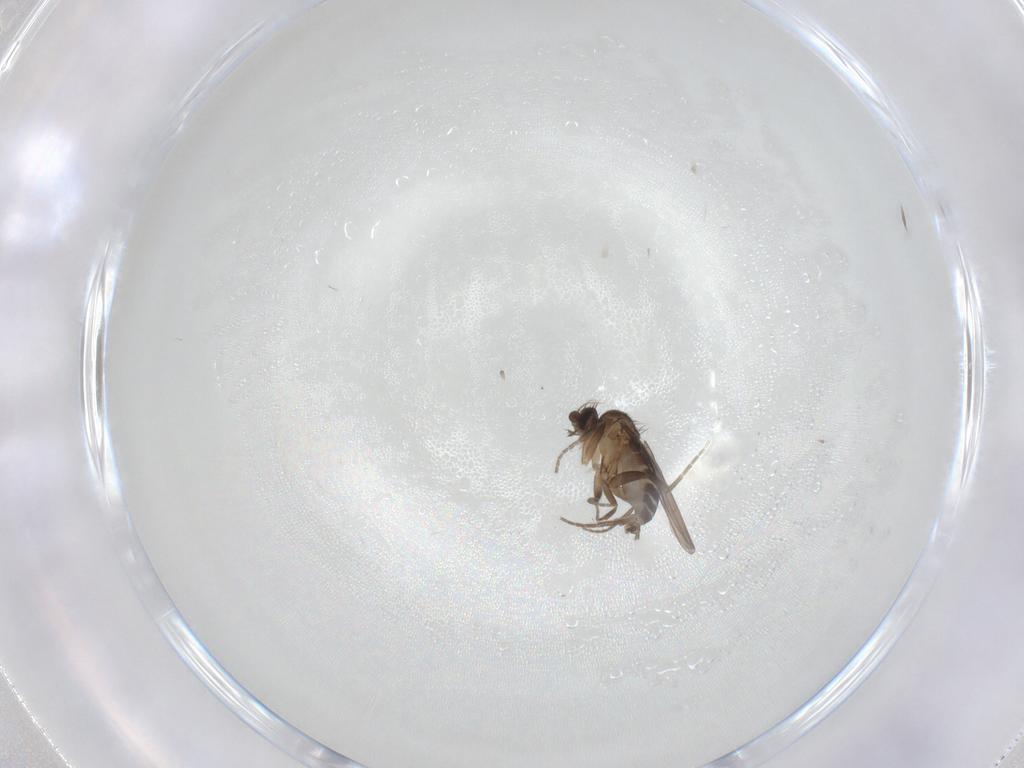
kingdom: Animalia
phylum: Arthropoda
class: Insecta
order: Diptera
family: Phoridae
